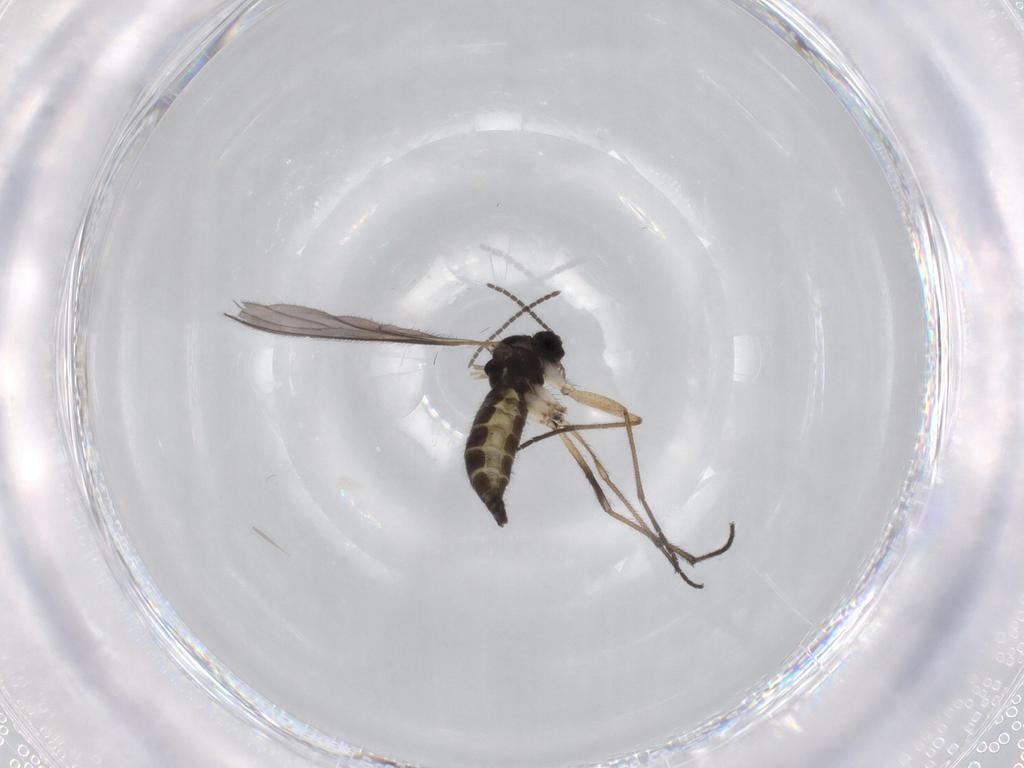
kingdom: Animalia
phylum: Arthropoda
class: Insecta
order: Diptera
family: Sciaridae
